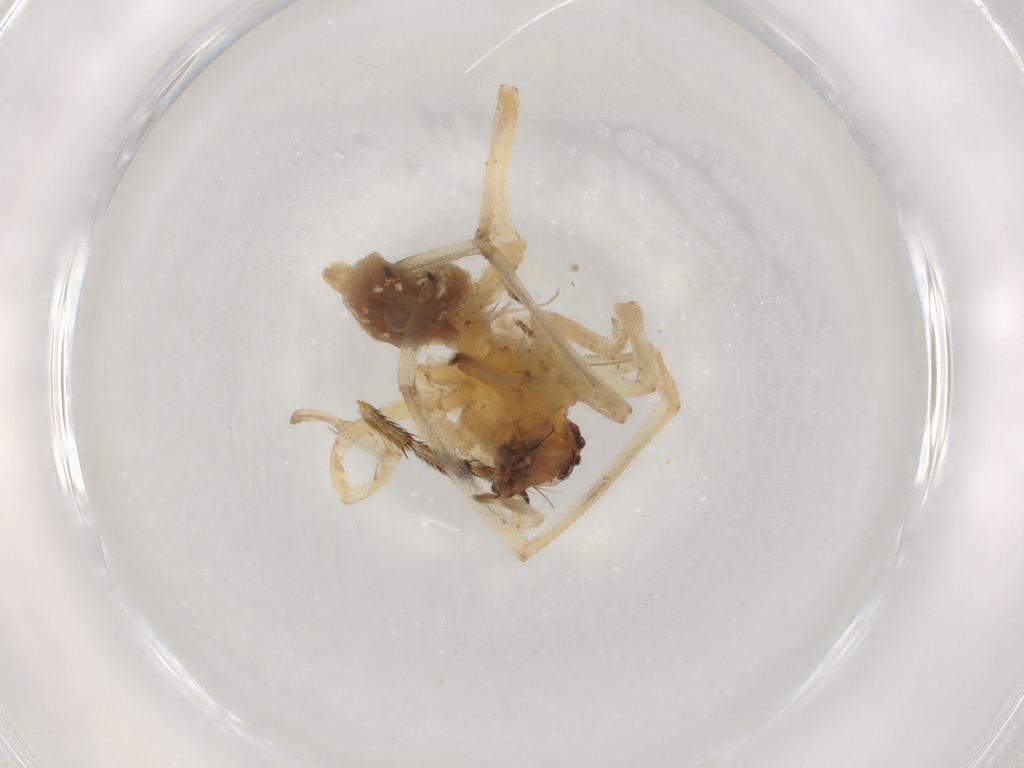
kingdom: Animalia
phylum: Arthropoda
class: Arachnida
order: Araneae
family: Cheiracanthiidae
